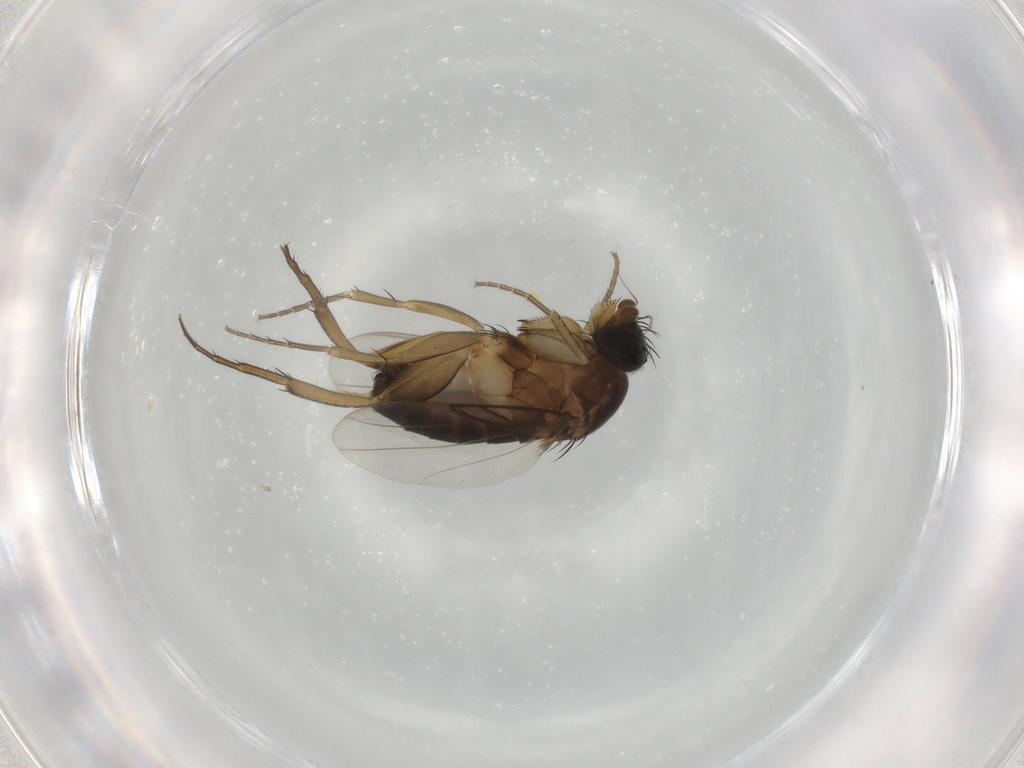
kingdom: Animalia
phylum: Arthropoda
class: Insecta
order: Diptera
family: Phoridae
